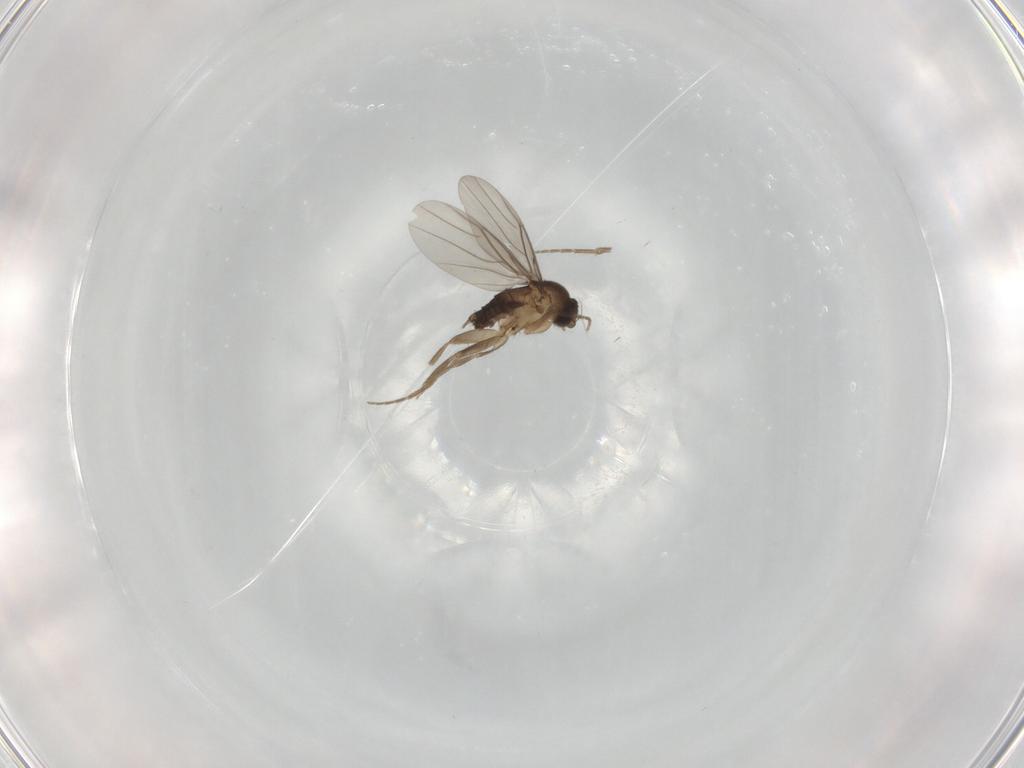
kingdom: Animalia
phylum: Arthropoda
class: Insecta
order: Diptera
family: Phoridae
